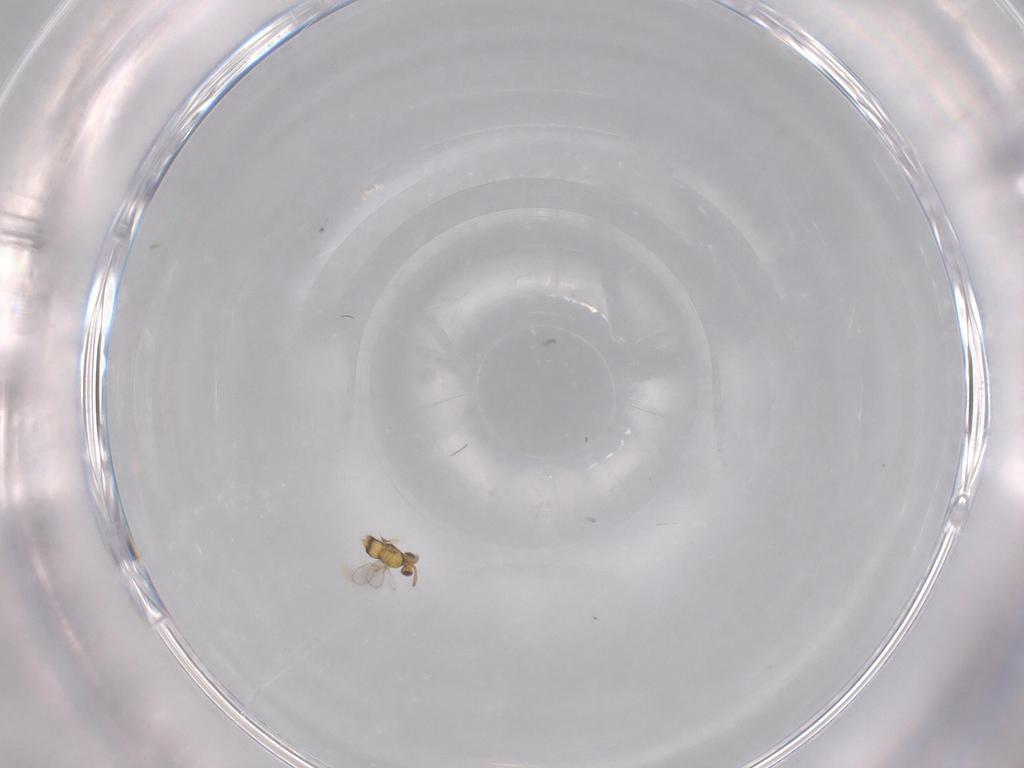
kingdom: Animalia
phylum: Arthropoda
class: Insecta
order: Hymenoptera
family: Aphelinidae
